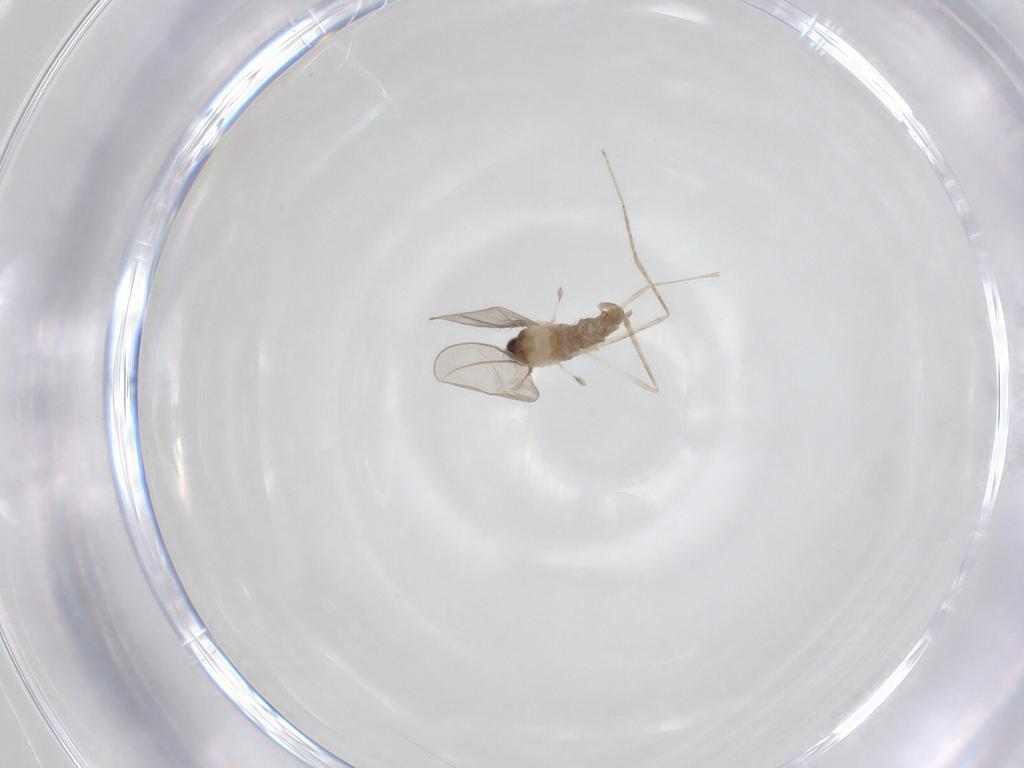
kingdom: Animalia
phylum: Arthropoda
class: Insecta
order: Diptera
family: Cecidomyiidae
